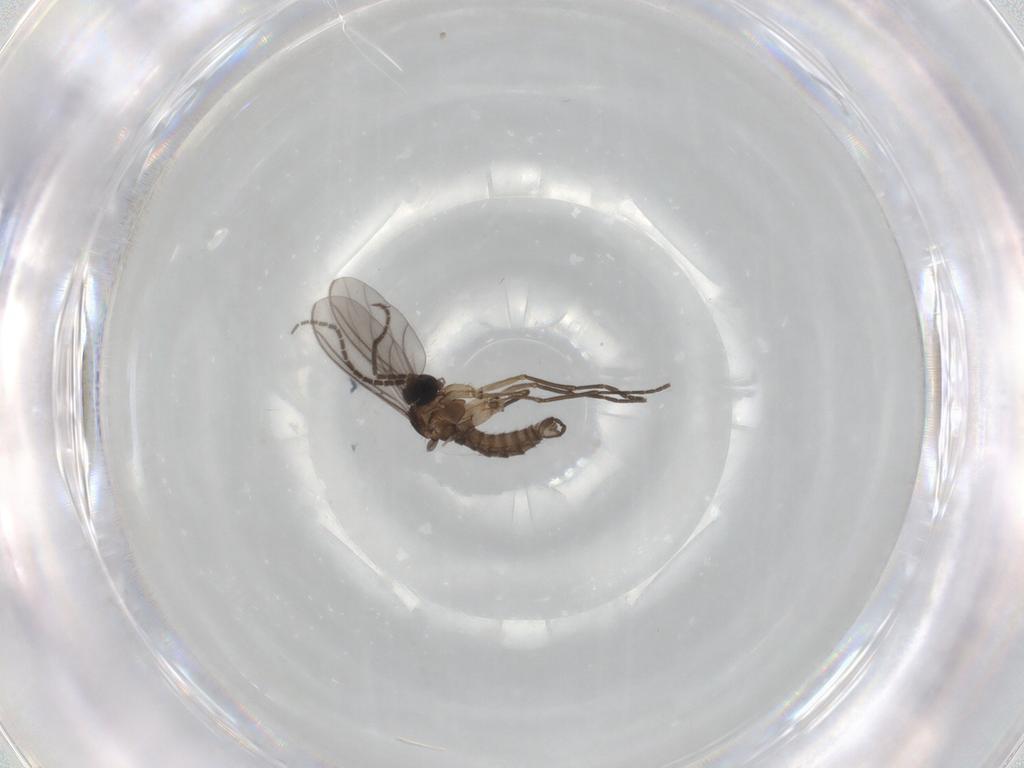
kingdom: Animalia
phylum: Arthropoda
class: Insecta
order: Diptera
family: Sciaridae
